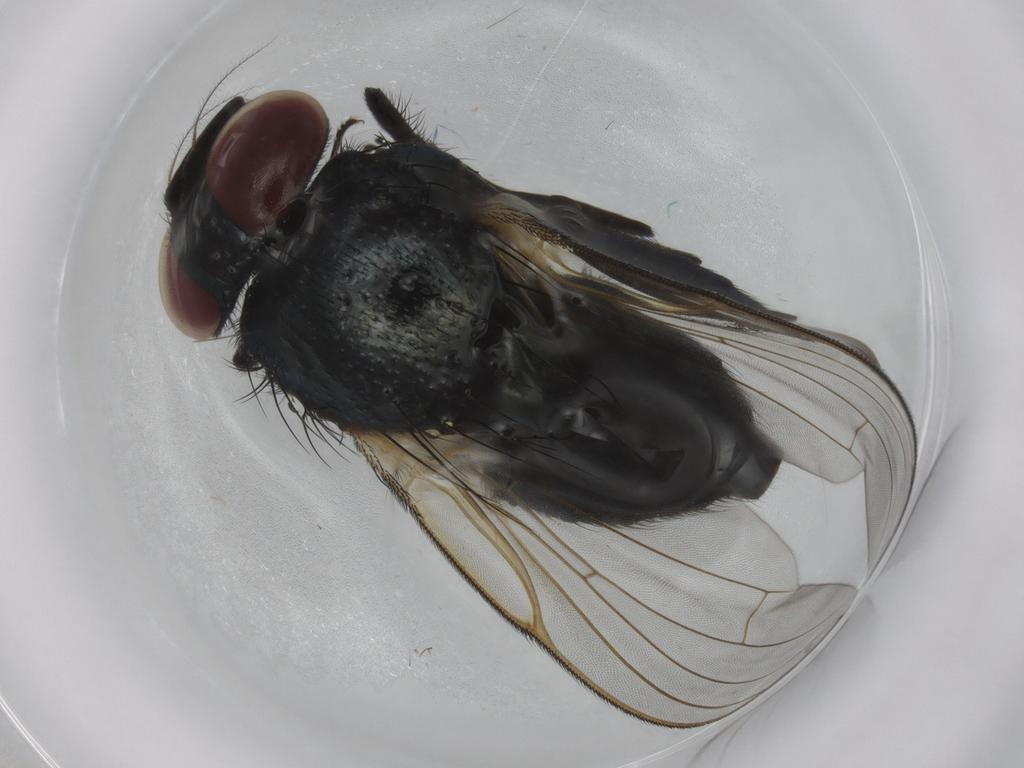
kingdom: Animalia
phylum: Arthropoda
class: Insecta
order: Diptera
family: Lonchaeidae
